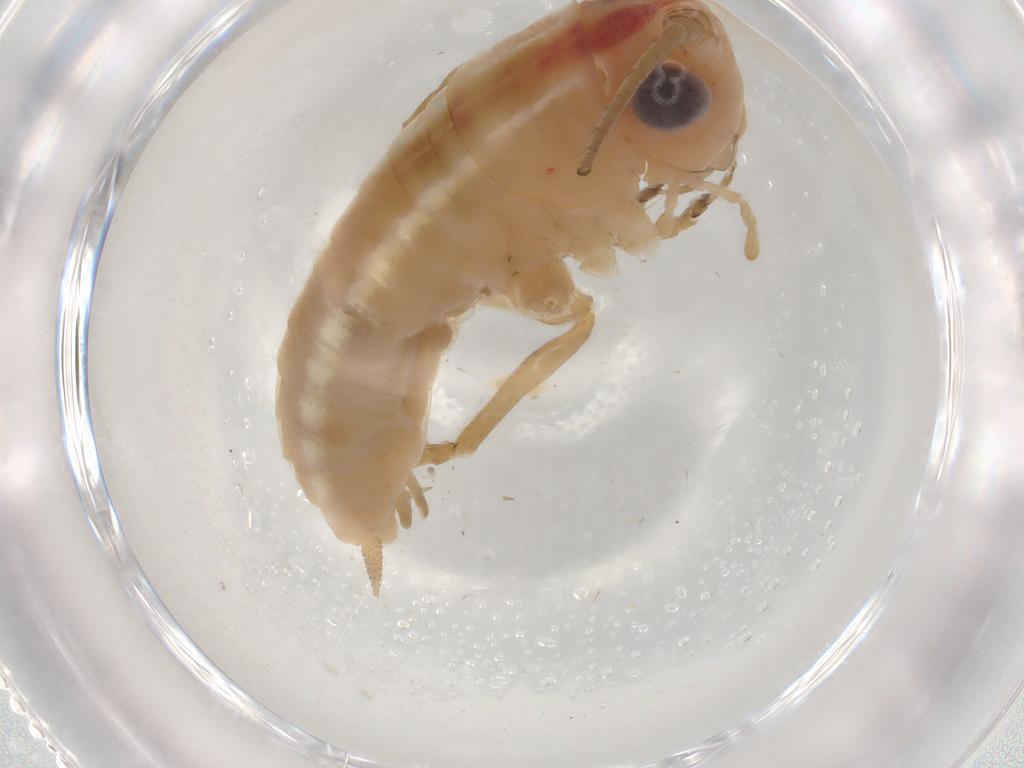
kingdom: Animalia
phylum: Arthropoda
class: Insecta
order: Orthoptera
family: Tettigoniidae
